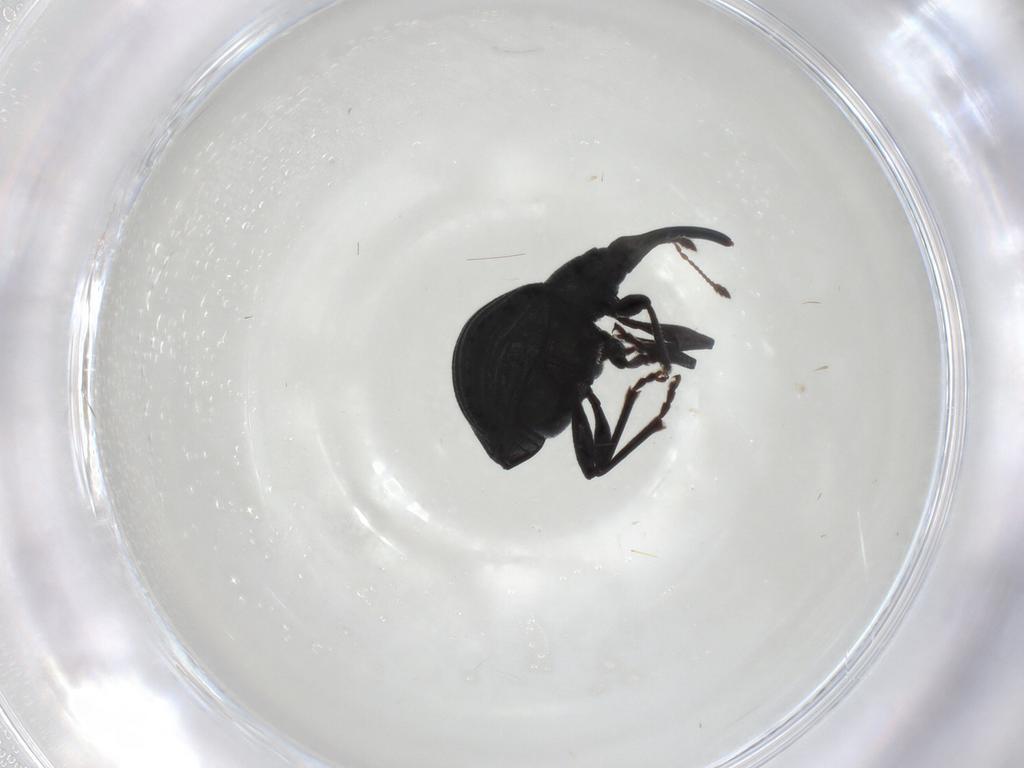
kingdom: Animalia
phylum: Arthropoda
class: Insecta
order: Coleoptera
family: Brentidae
